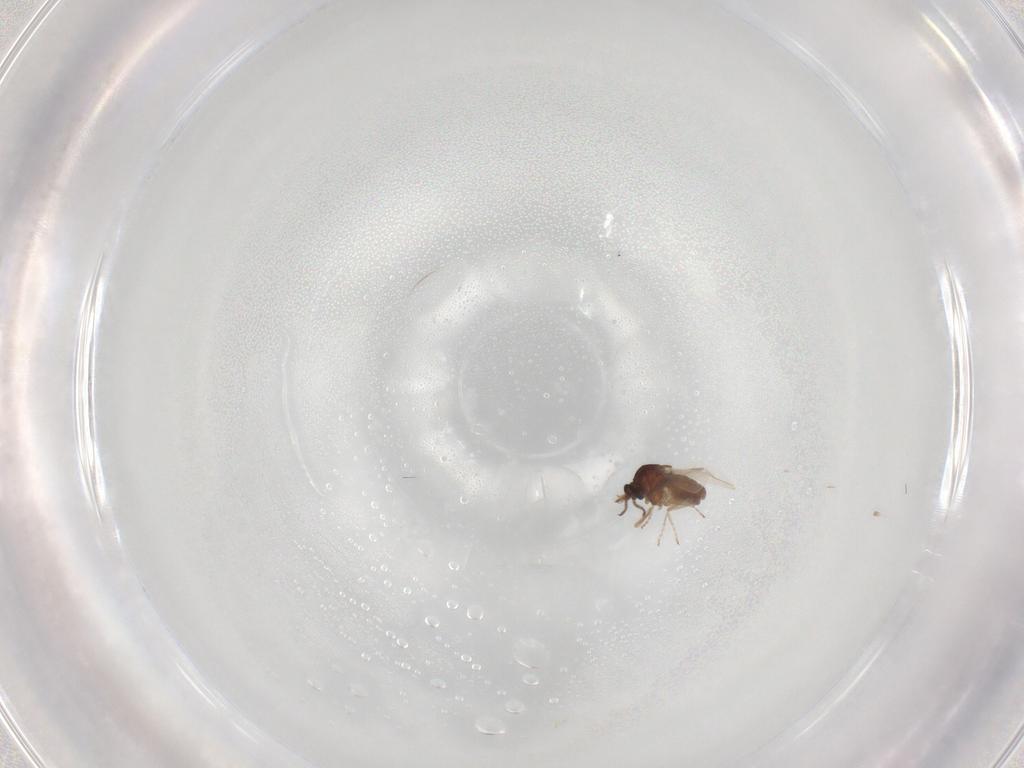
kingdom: Animalia
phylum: Arthropoda
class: Insecta
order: Diptera
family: Ceratopogonidae
